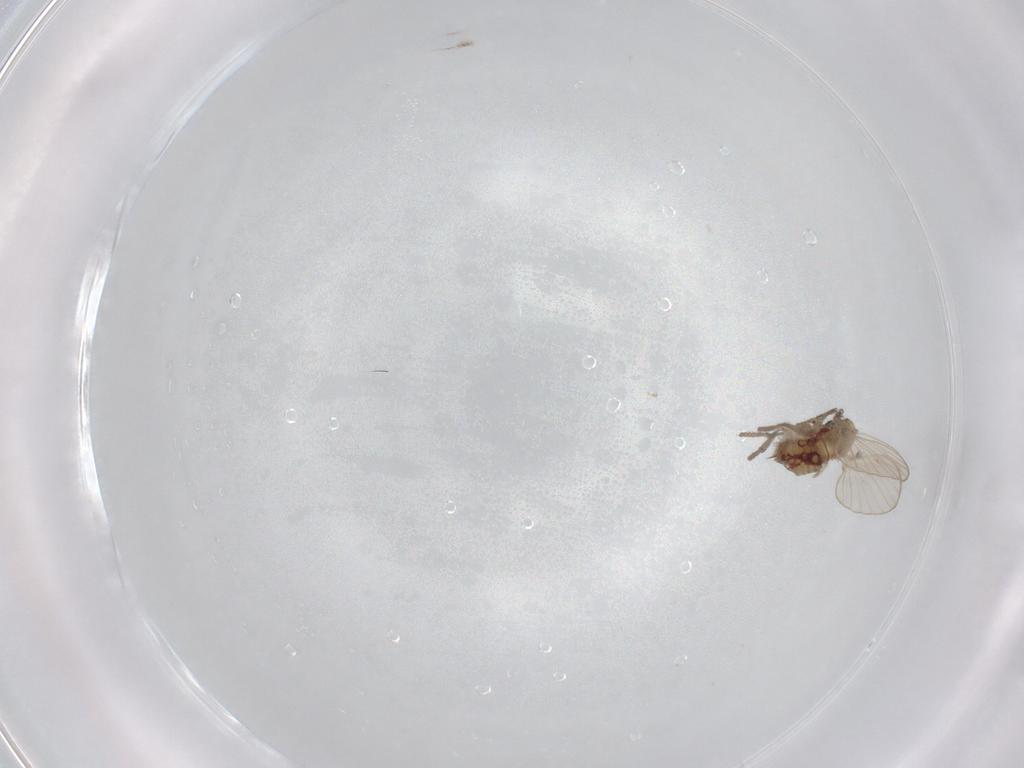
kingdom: Animalia
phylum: Arthropoda
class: Insecta
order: Diptera
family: Psychodidae
